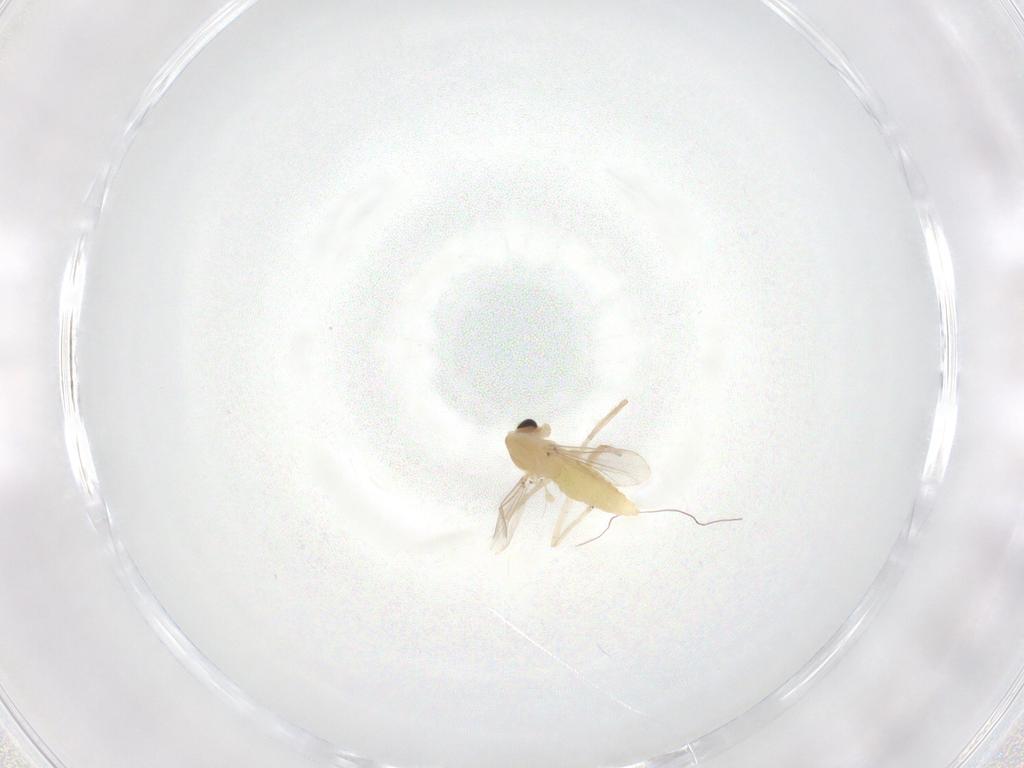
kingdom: Animalia
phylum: Arthropoda
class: Insecta
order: Diptera
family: Chironomidae
